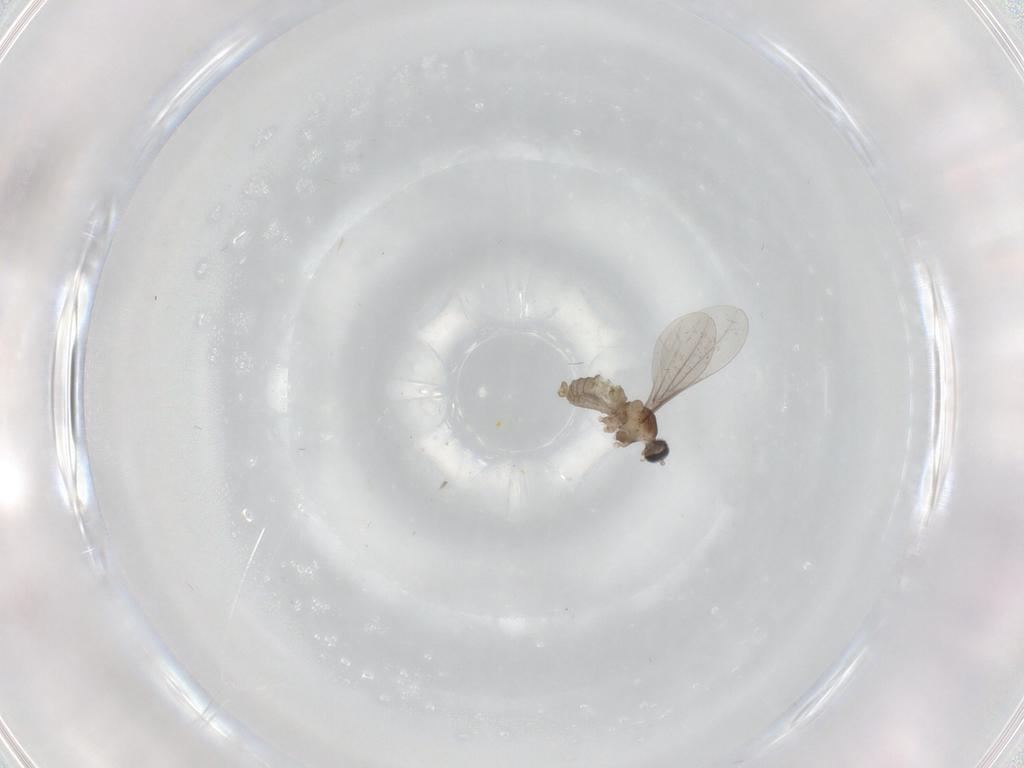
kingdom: Animalia
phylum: Arthropoda
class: Insecta
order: Diptera
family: Cecidomyiidae
